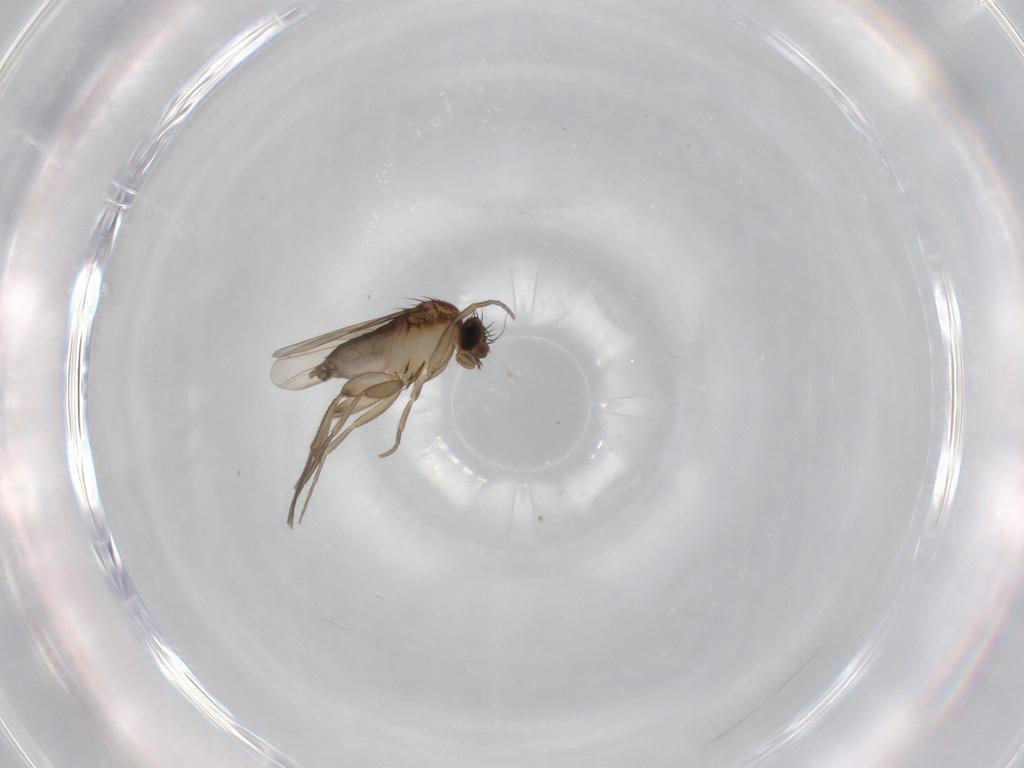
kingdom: Animalia
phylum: Arthropoda
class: Insecta
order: Diptera
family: Phoridae
